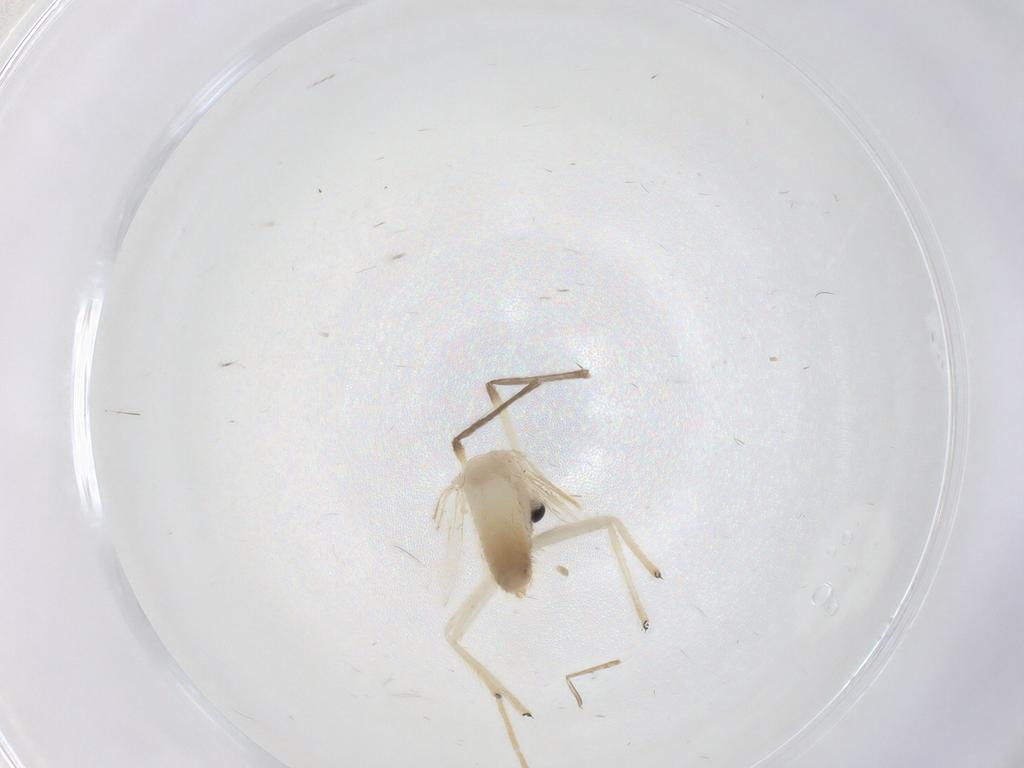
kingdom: Animalia
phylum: Arthropoda
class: Insecta
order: Diptera
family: Chironomidae
